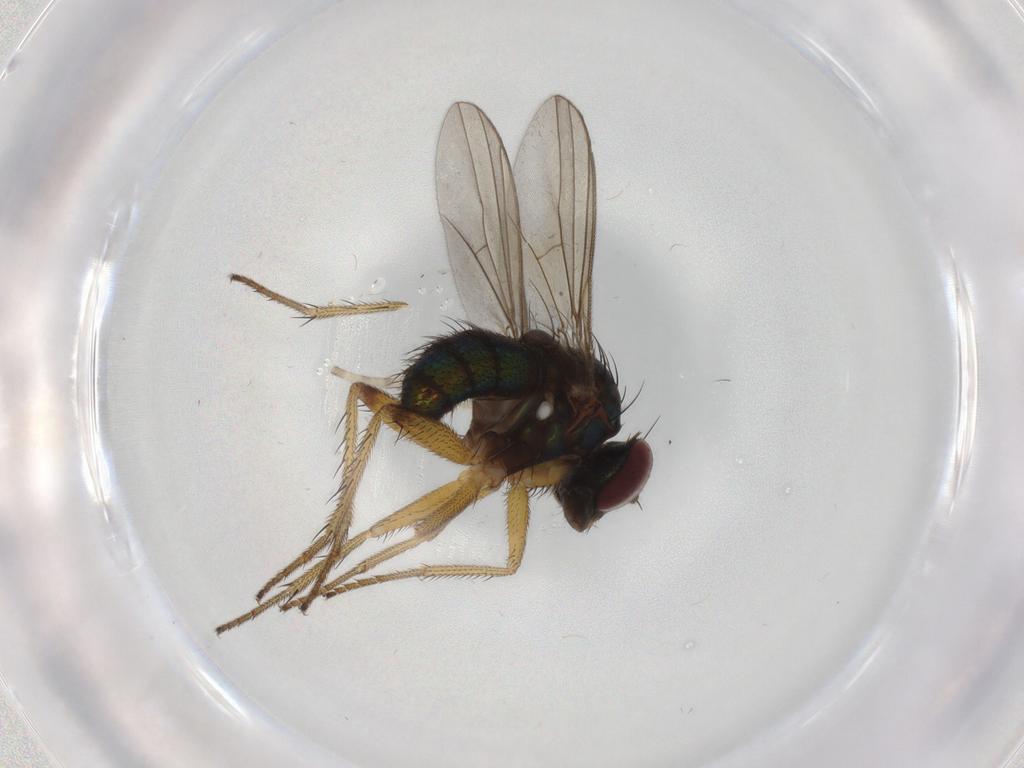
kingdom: Animalia
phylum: Arthropoda
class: Insecta
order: Diptera
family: Dolichopodidae
